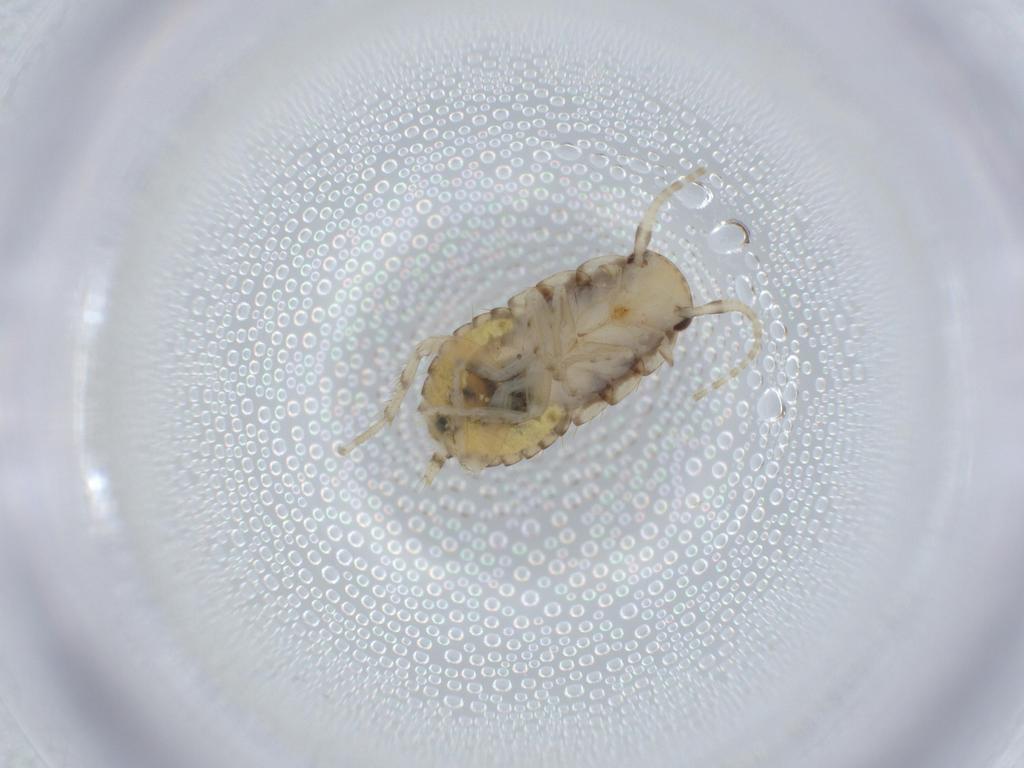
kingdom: Animalia
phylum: Arthropoda
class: Insecta
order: Blattodea
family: Ectobiidae
